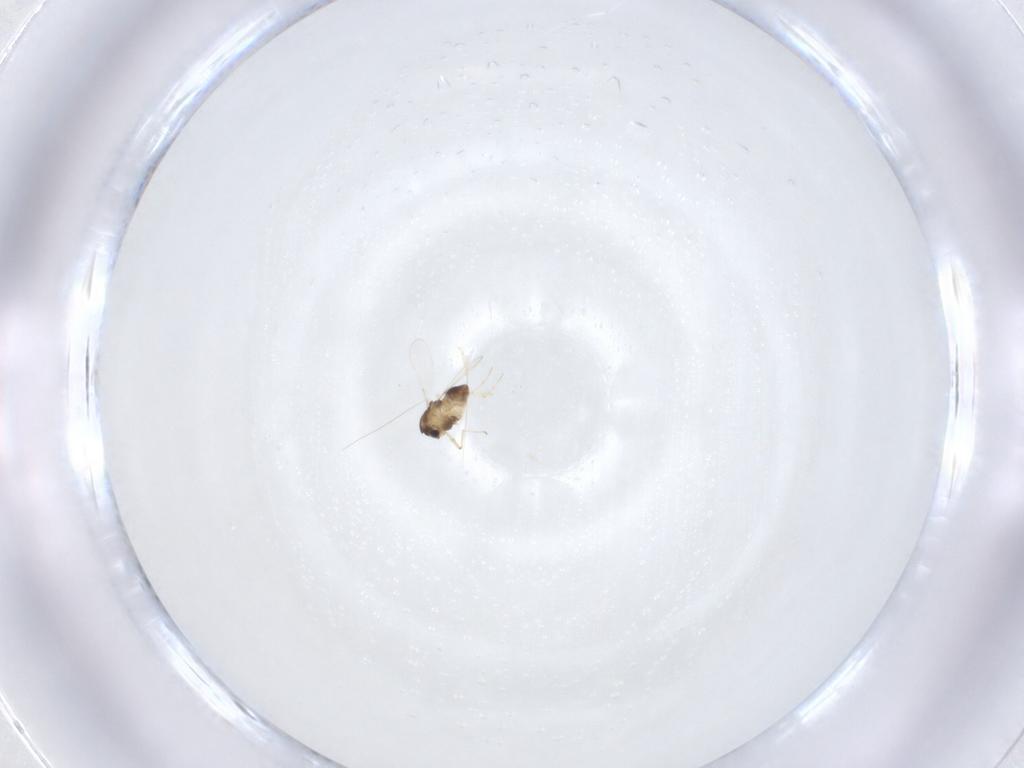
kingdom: Animalia
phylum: Arthropoda
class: Insecta
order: Diptera
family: Chironomidae
